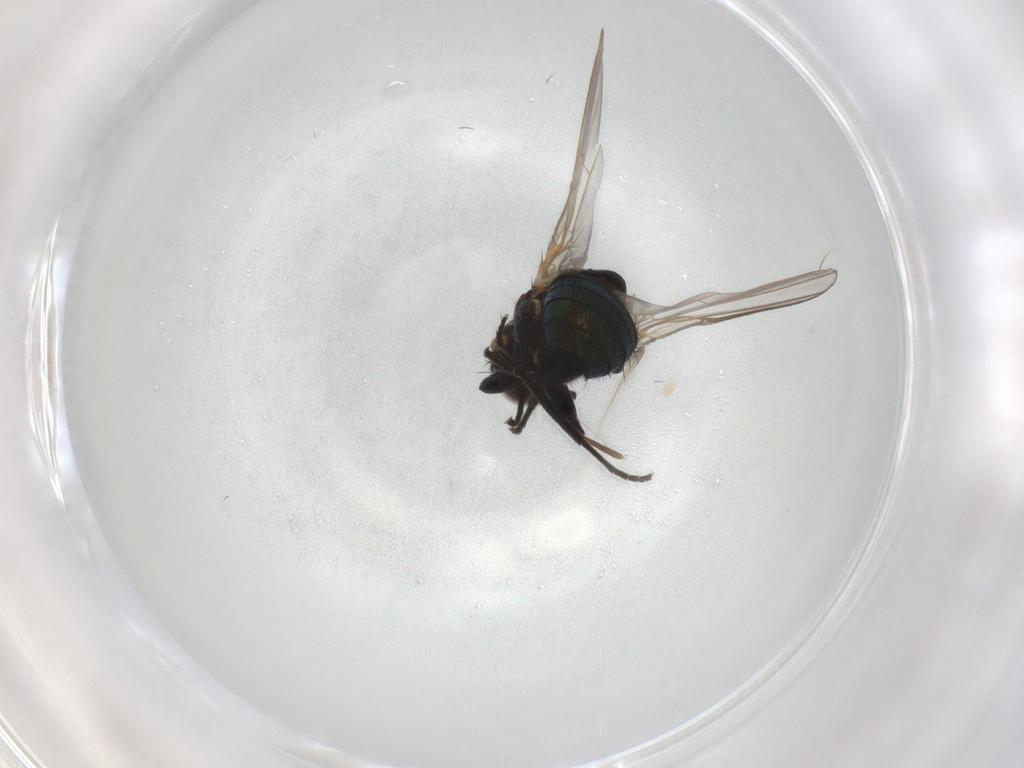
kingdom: Animalia
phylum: Arthropoda
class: Insecta
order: Diptera
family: Agromyzidae
